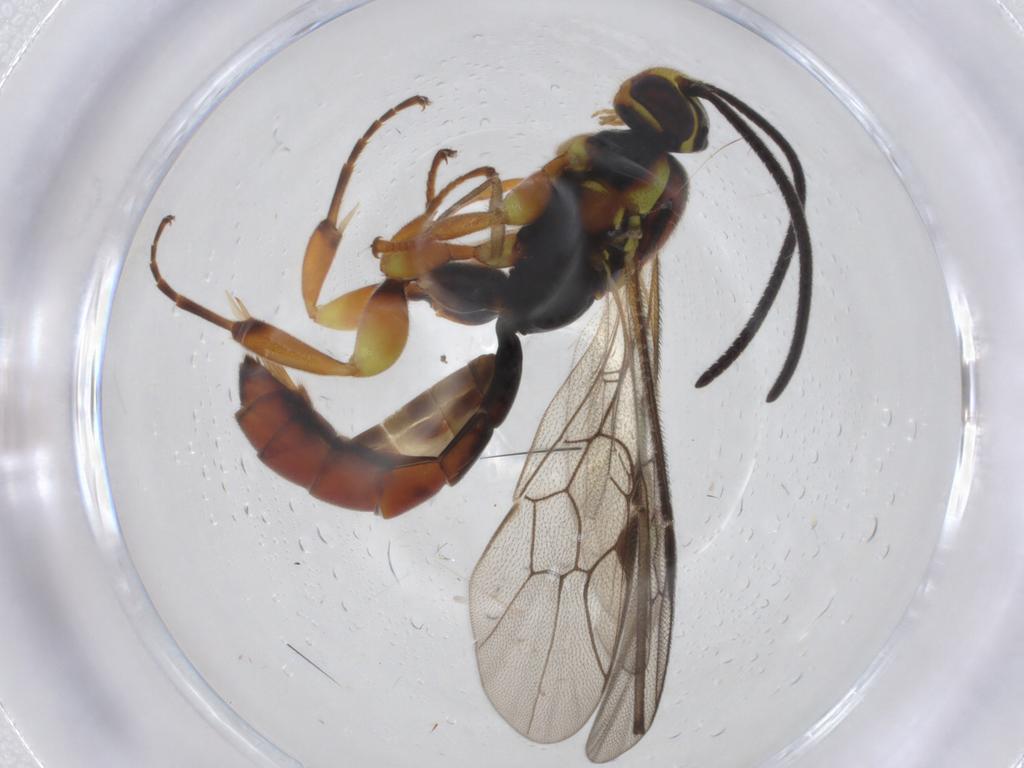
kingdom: Animalia
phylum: Arthropoda
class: Insecta
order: Hymenoptera
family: Ichneumonidae
